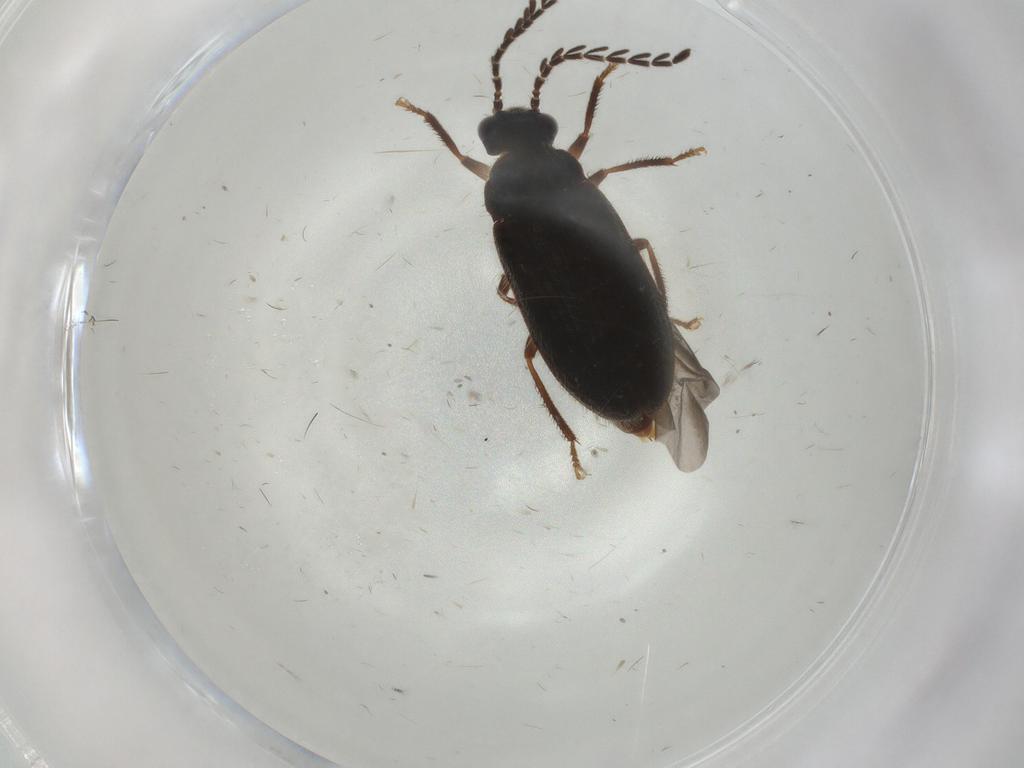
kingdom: Animalia
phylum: Arthropoda
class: Insecta
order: Coleoptera
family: Ptilodactylidae
